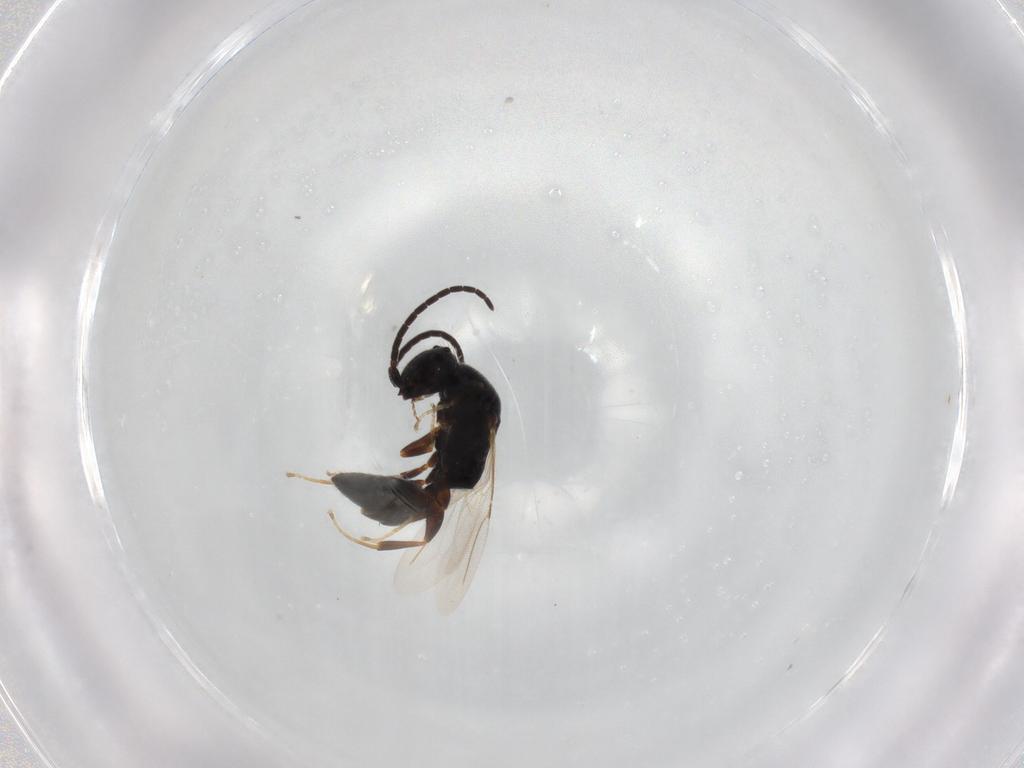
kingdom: Animalia
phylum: Arthropoda
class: Insecta
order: Hymenoptera
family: Bethylidae
